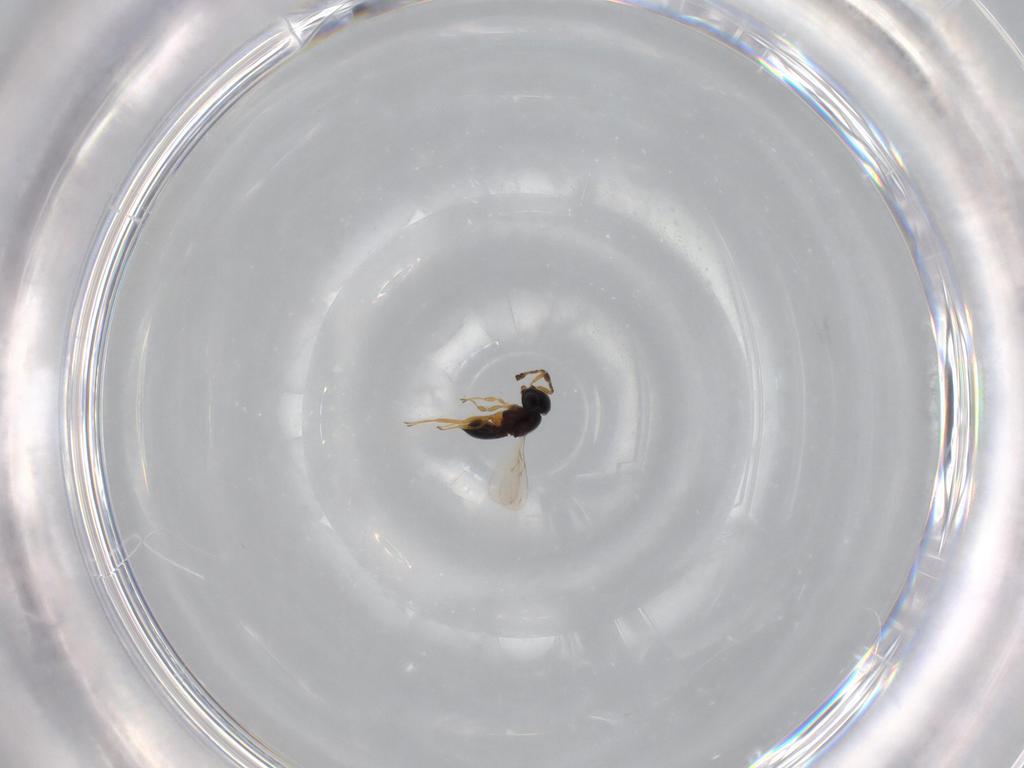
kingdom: Animalia
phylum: Arthropoda
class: Insecta
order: Hymenoptera
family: Scelionidae
